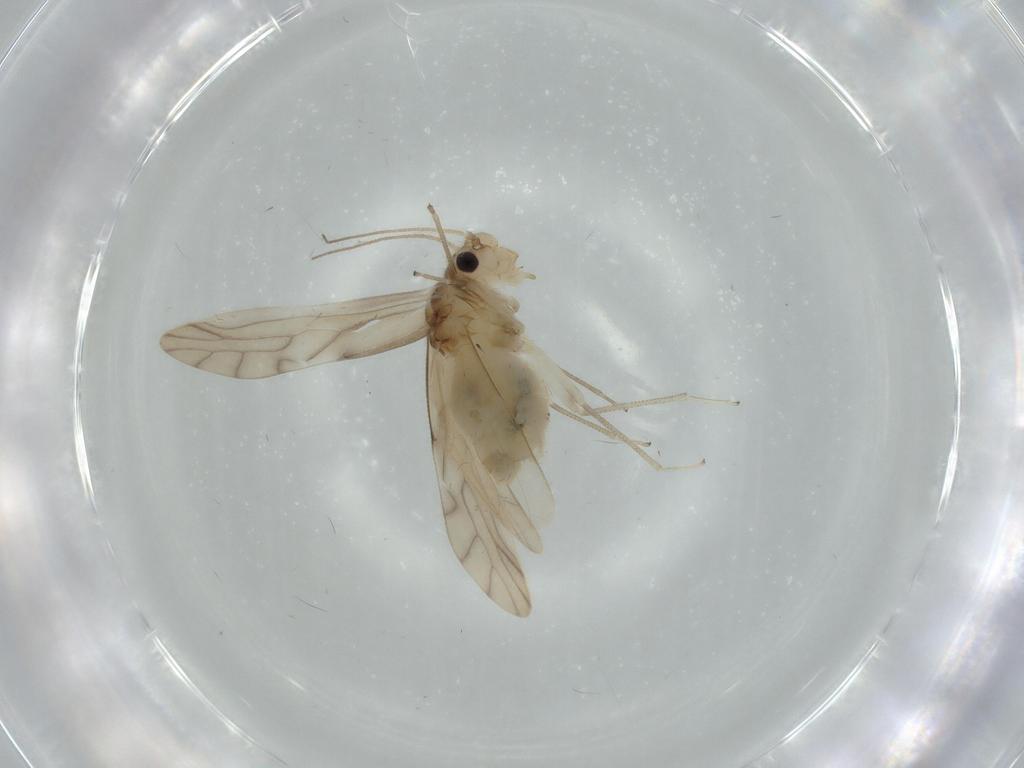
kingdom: Animalia
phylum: Arthropoda
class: Insecta
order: Psocodea
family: Caeciliusidae
